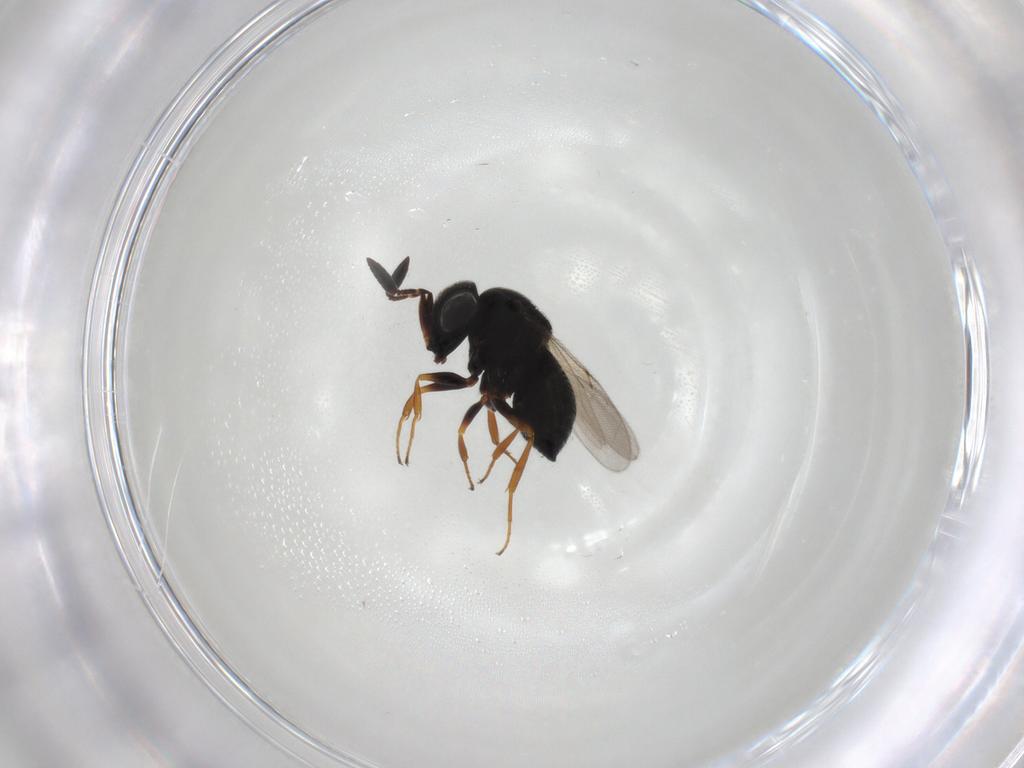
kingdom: Animalia
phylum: Arthropoda
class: Insecta
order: Hymenoptera
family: Scelionidae
